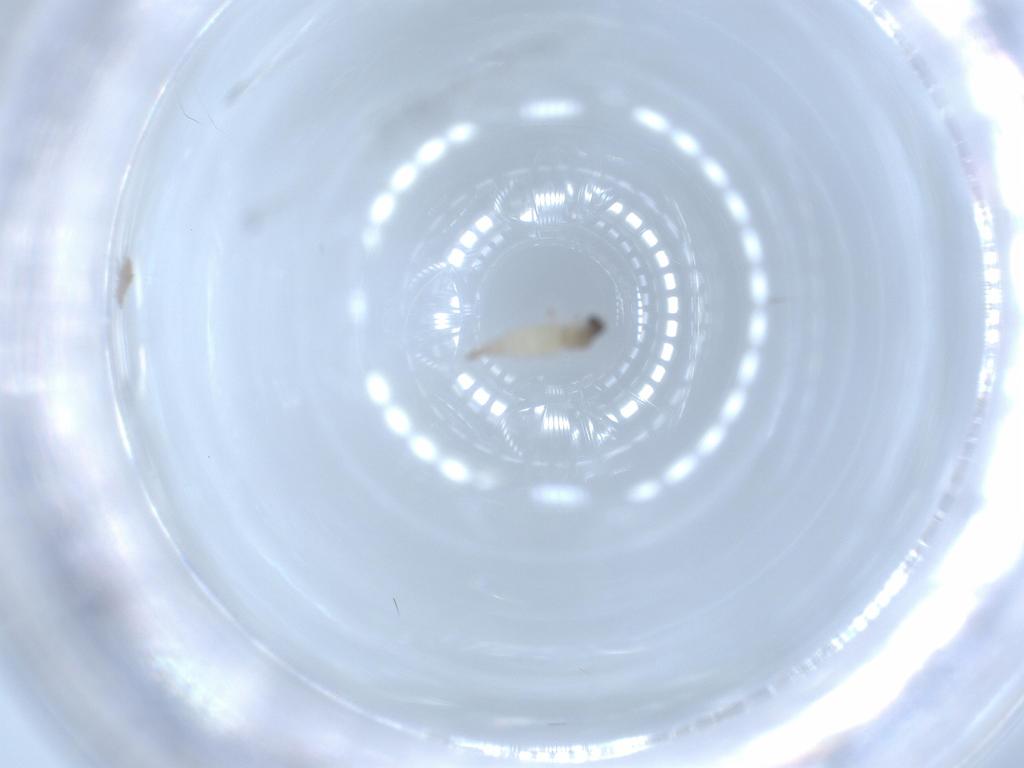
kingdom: Animalia
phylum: Arthropoda
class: Insecta
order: Diptera
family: Cecidomyiidae
